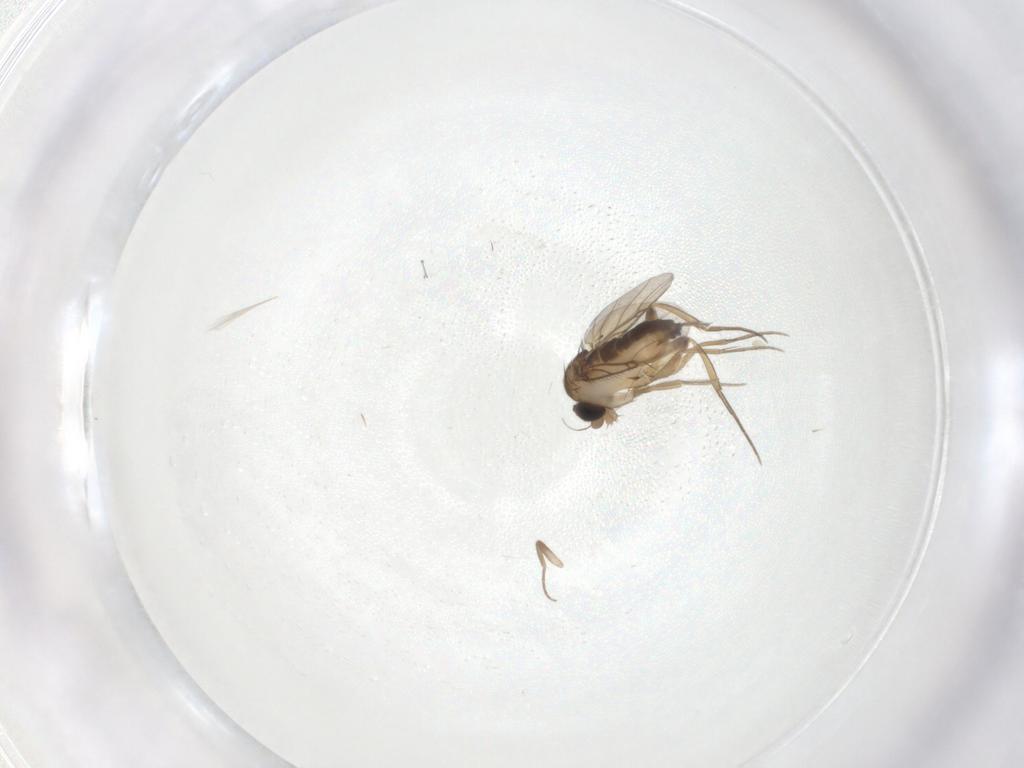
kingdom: Animalia
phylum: Arthropoda
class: Insecta
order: Diptera
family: Phoridae
